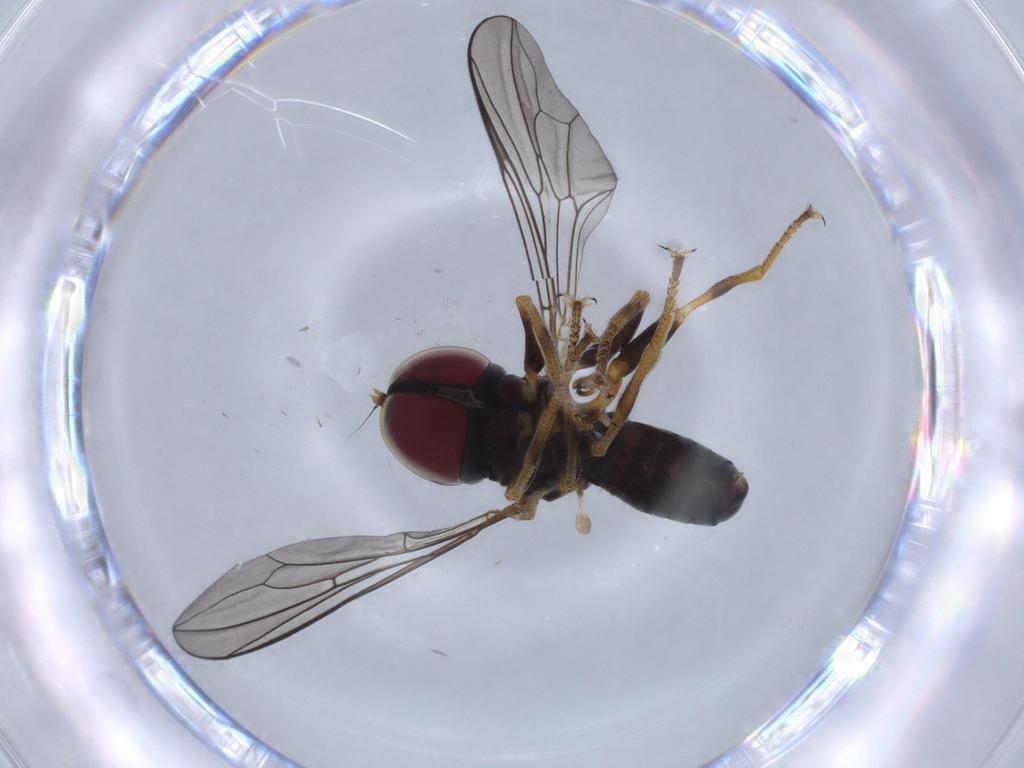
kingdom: Animalia
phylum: Arthropoda
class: Insecta
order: Diptera
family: Pipunculidae
